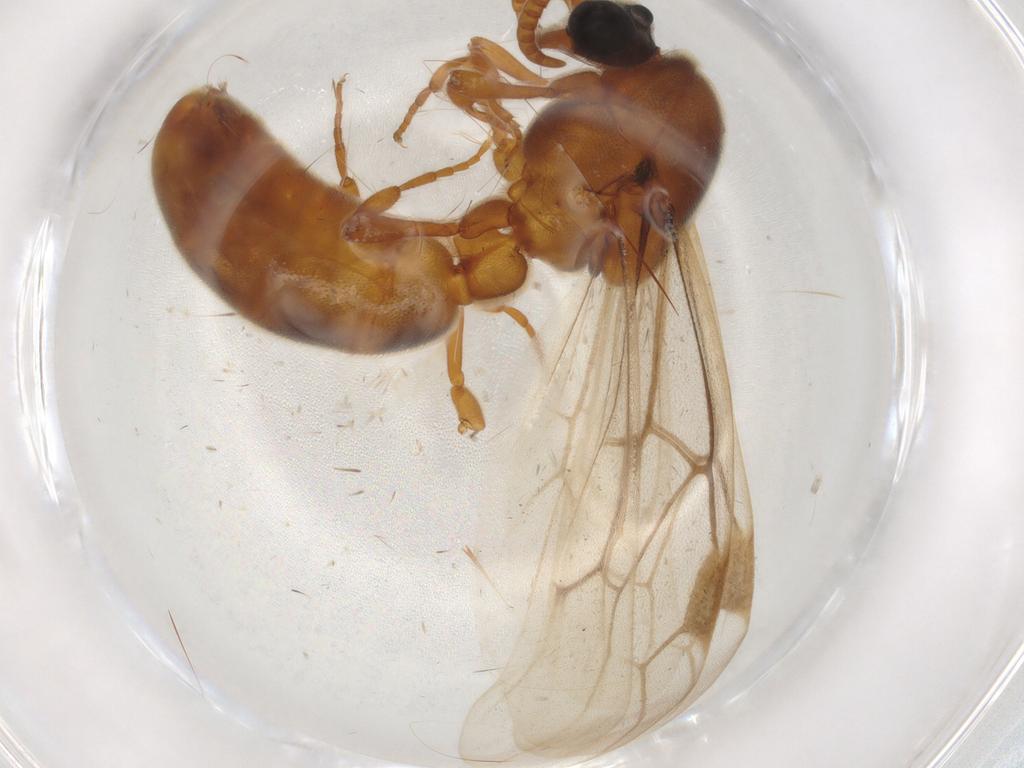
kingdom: Animalia
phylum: Arthropoda
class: Insecta
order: Hymenoptera
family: Formicidae
